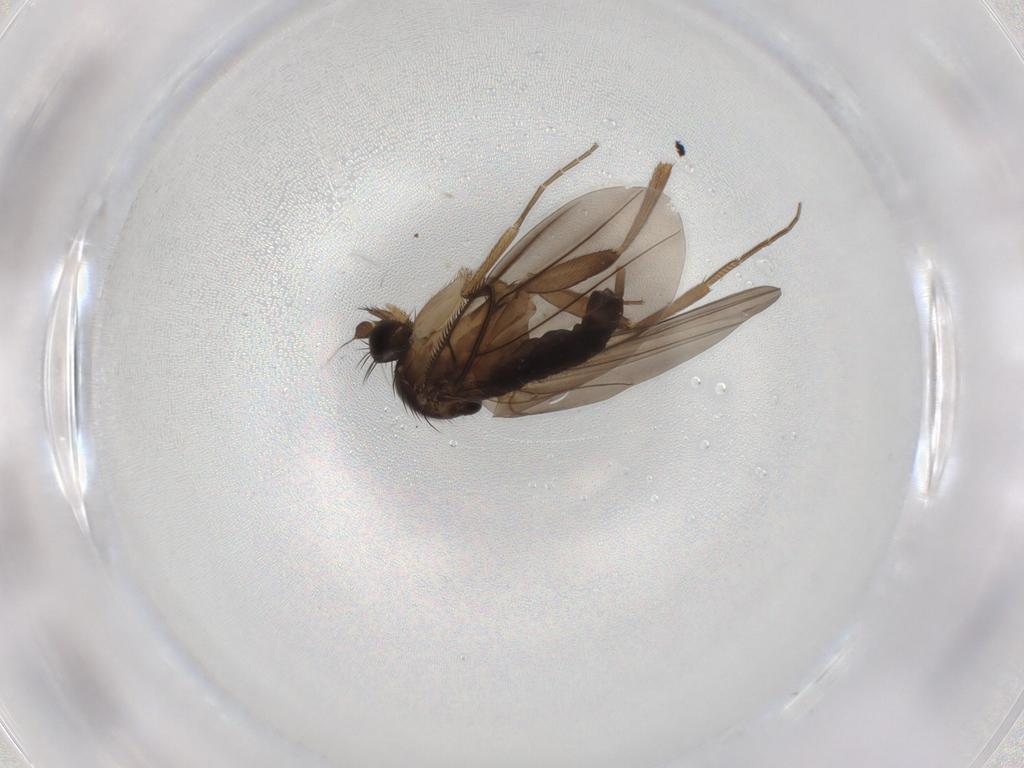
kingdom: Animalia
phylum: Arthropoda
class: Insecta
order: Diptera
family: Phoridae
